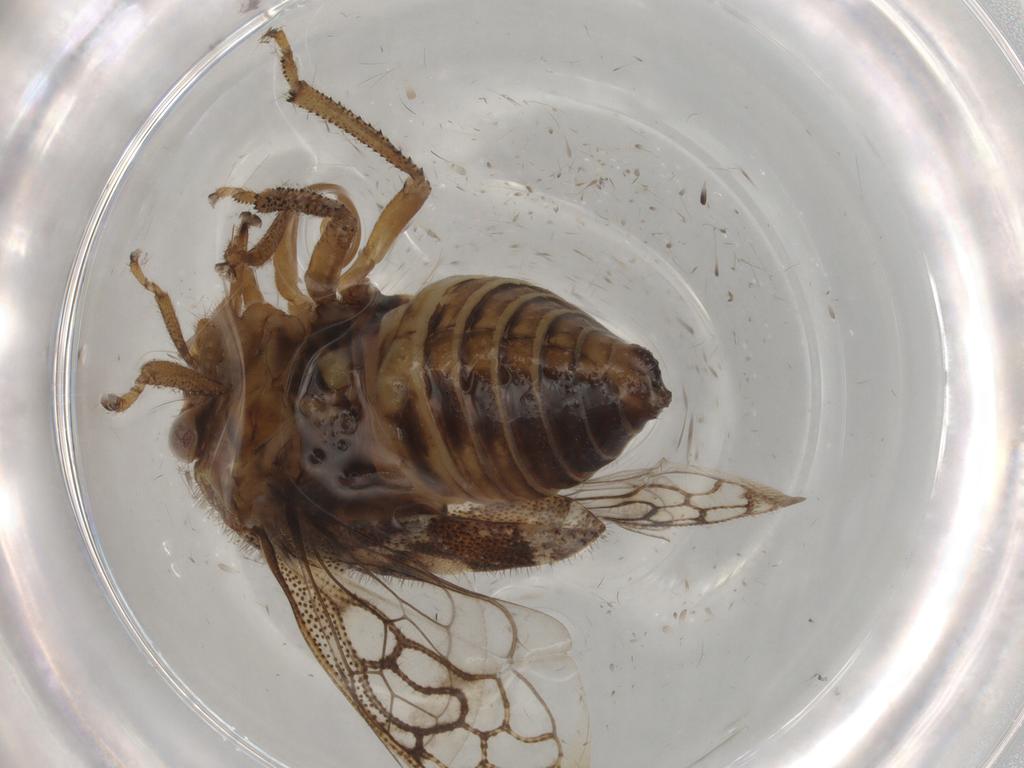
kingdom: Animalia
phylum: Arthropoda
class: Insecta
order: Hemiptera
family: Membracidae
